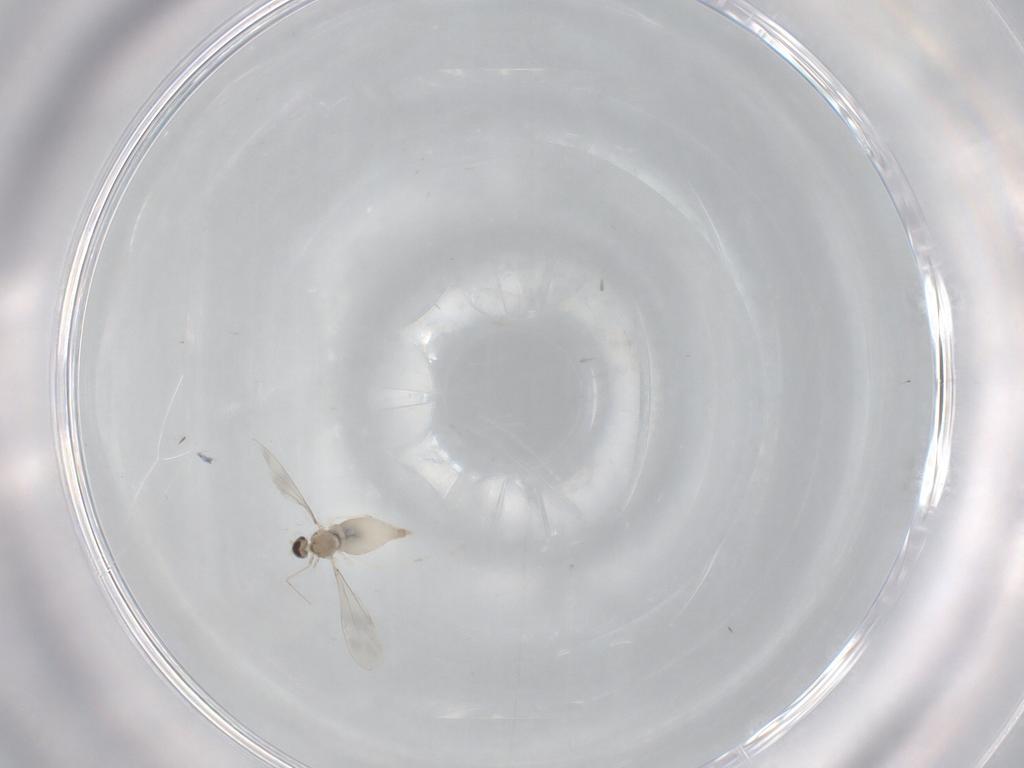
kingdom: Animalia
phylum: Arthropoda
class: Insecta
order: Diptera
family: Cecidomyiidae
